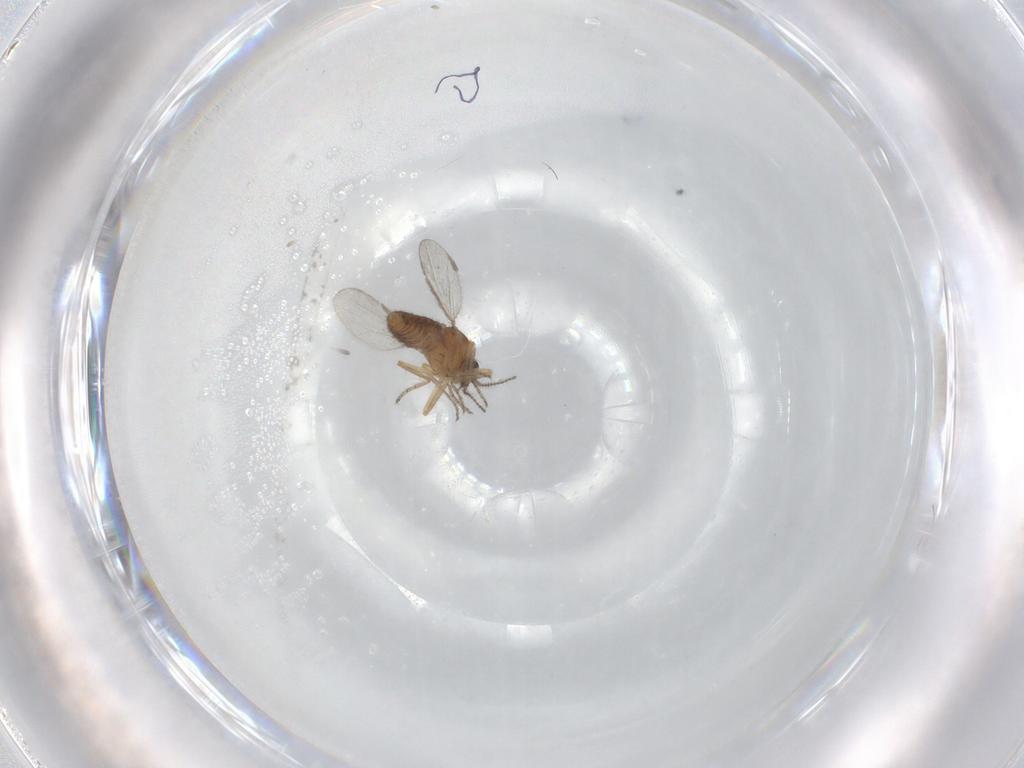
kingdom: Animalia
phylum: Arthropoda
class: Insecta
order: Diptera
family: Ceratopogonidae
